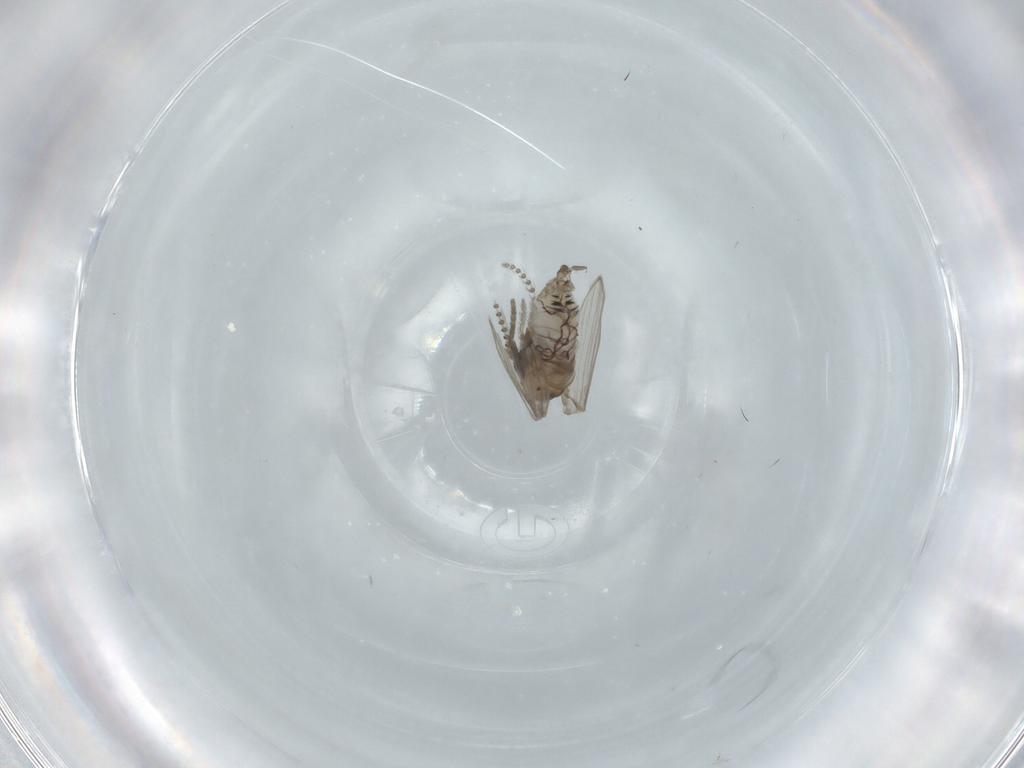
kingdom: Animalia
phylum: Arthropoda
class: Insecta
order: Diptera
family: Psychodidae
